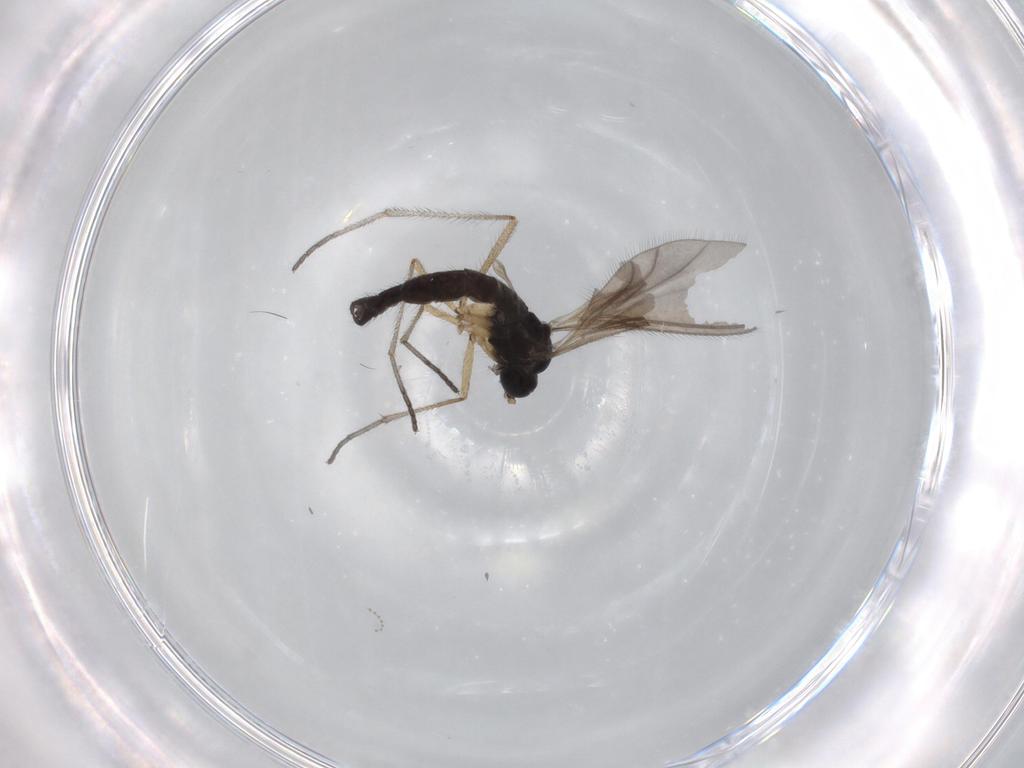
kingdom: Animalia
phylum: Arthropoda
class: Insecta
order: Diptera
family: Sciaridae
